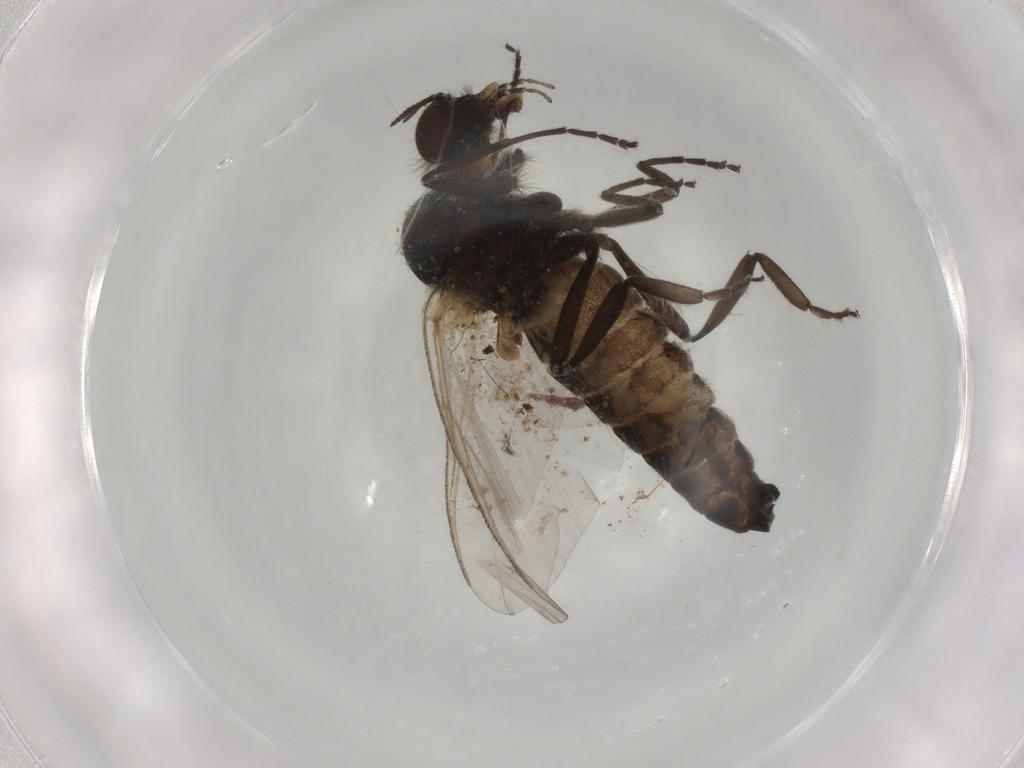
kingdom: Animalia
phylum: Arthropoda
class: Insecta
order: Diptera
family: Chironomidae
